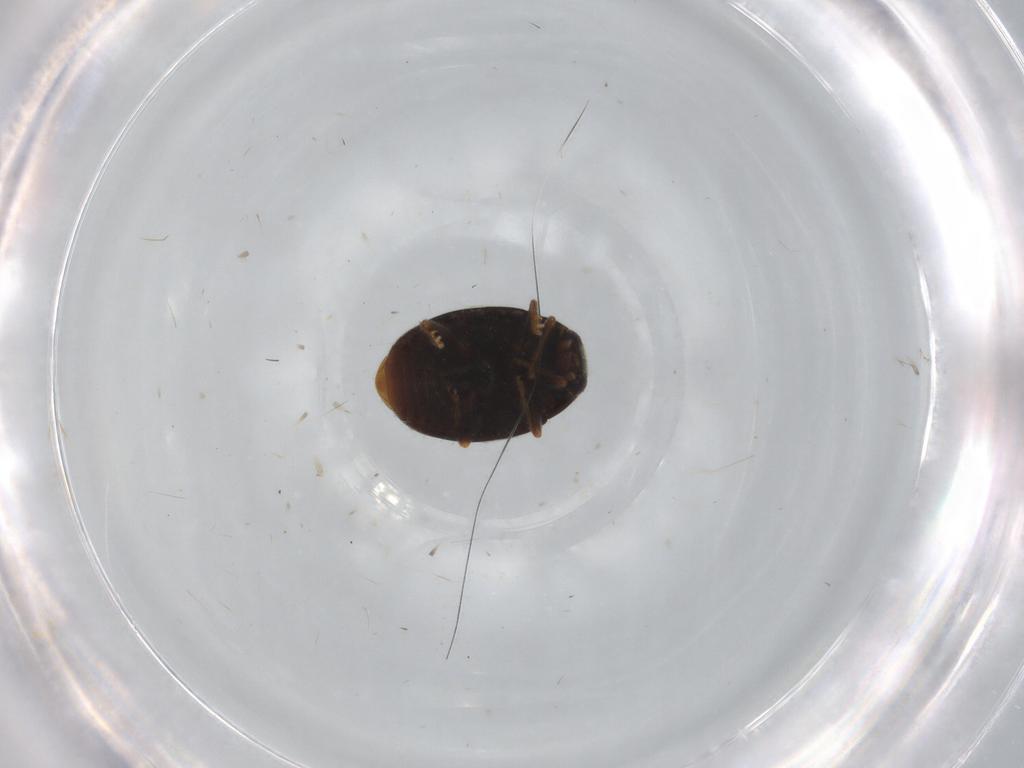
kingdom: Animalia
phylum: Arthropoda
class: Insecta
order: Coleoptera
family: Coccinellidae
